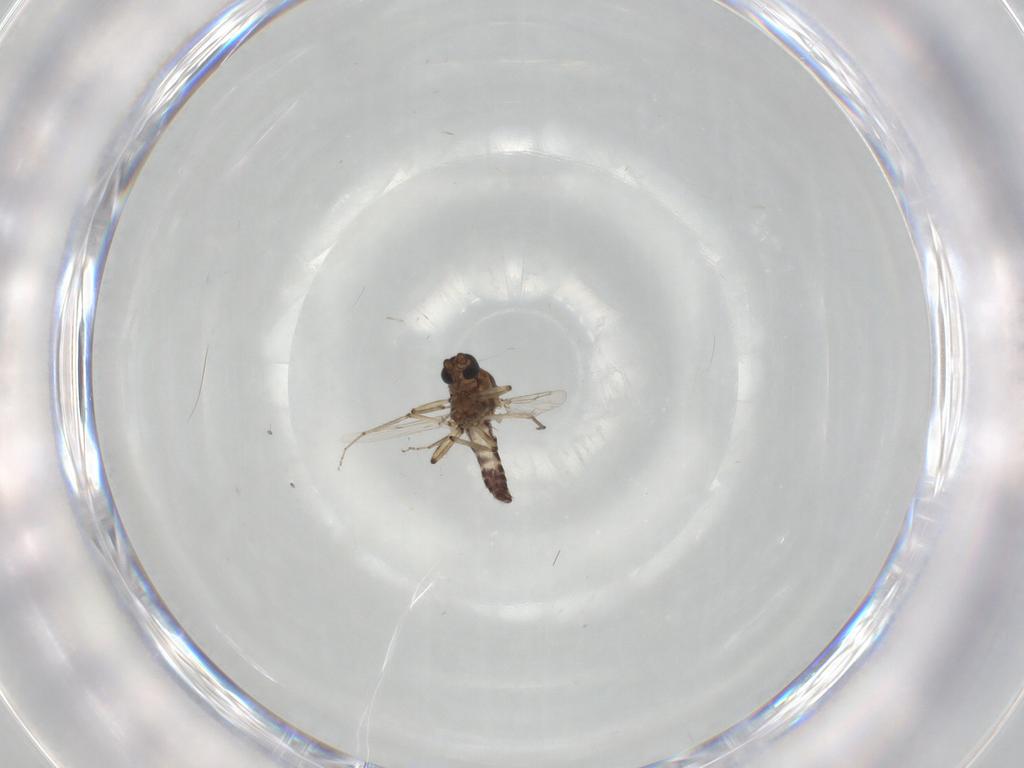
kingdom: Animalia
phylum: Arthropoda
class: Insecta
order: Diptera
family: Ceratopogonidae
